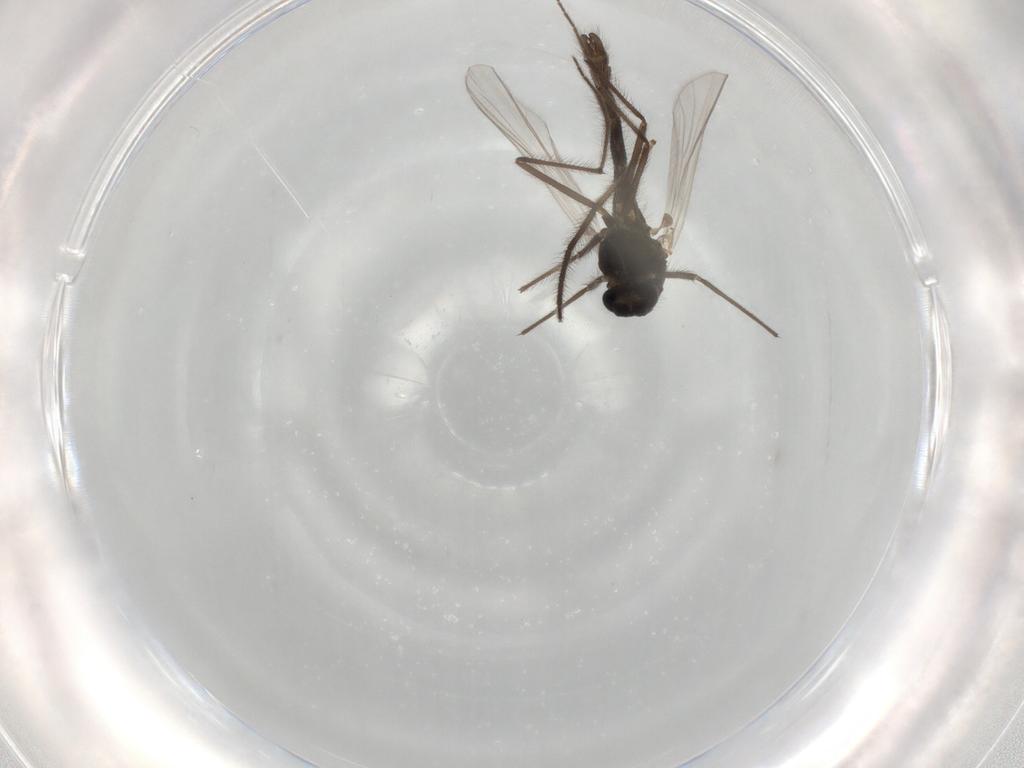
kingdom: Animalia
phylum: Arthropoda
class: Insecta
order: Diptera
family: Chironomidae
